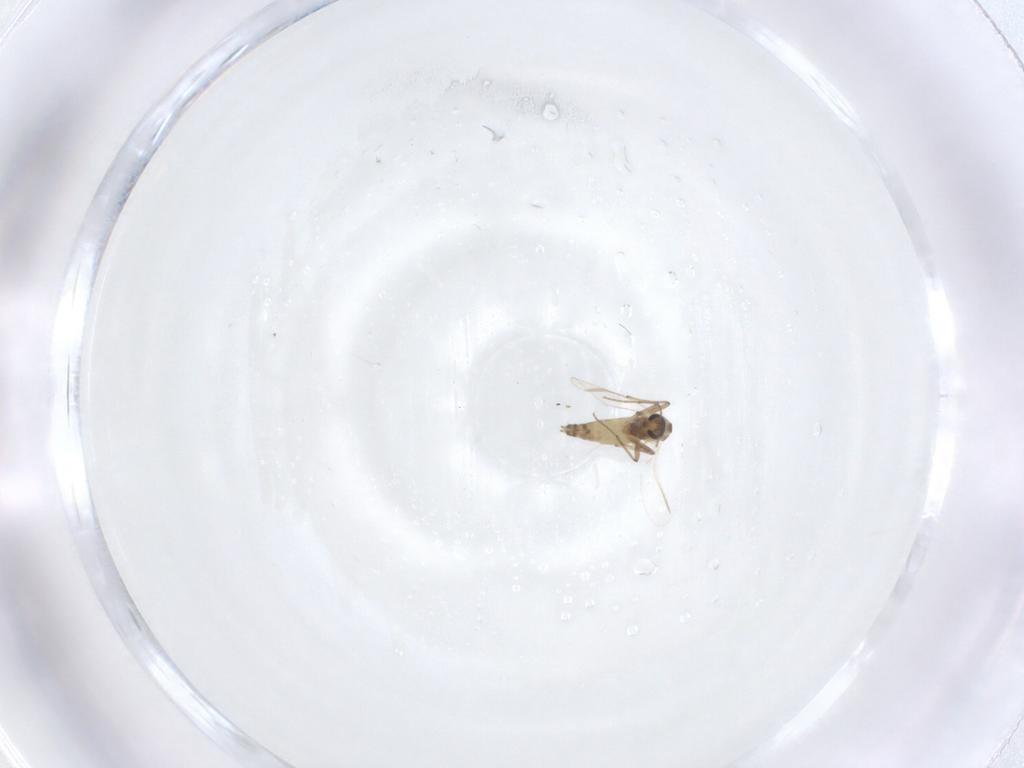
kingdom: Animalia
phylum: Arthropoda
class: Insecta
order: Diptera
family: Chironomidae
